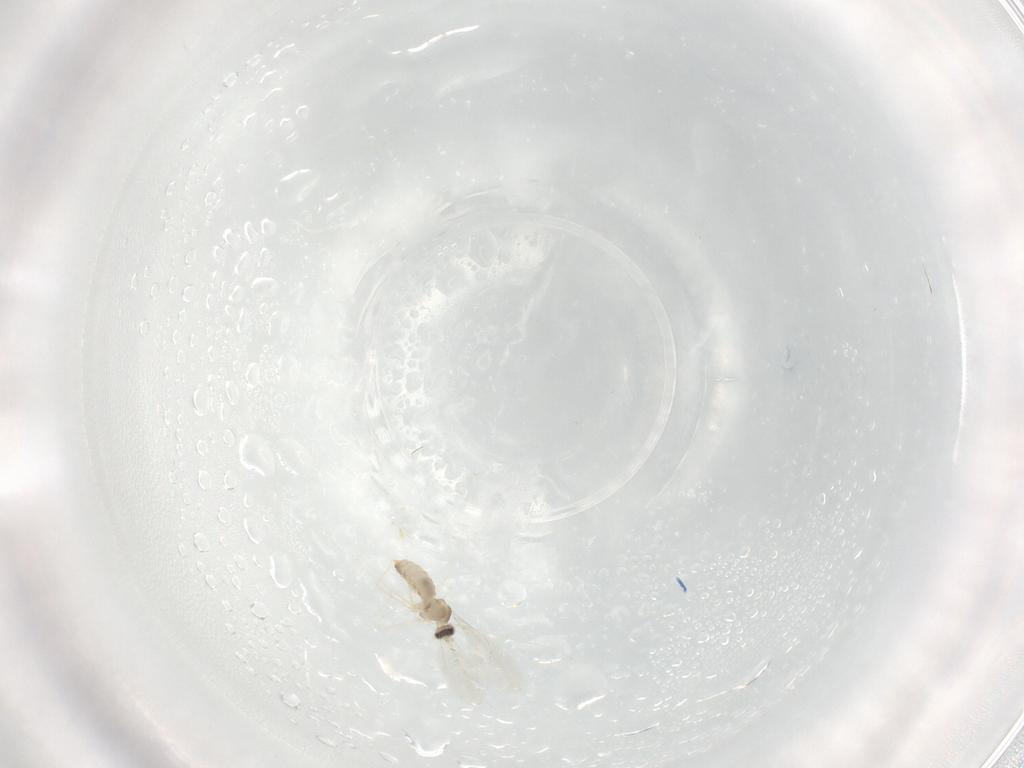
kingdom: Animalia
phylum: Arthropoda
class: Insecta
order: Diptera
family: Cecidomyiidae
